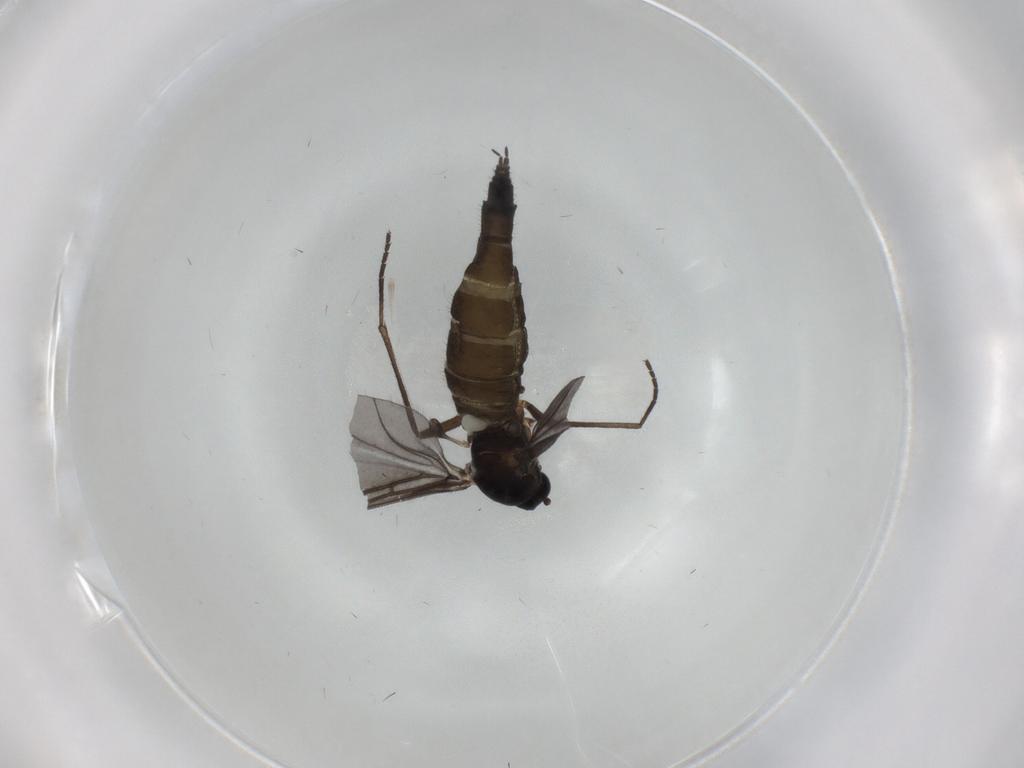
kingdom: Animalia
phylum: Arthropoda
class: Insecta
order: Diptera
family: Sciaridae
